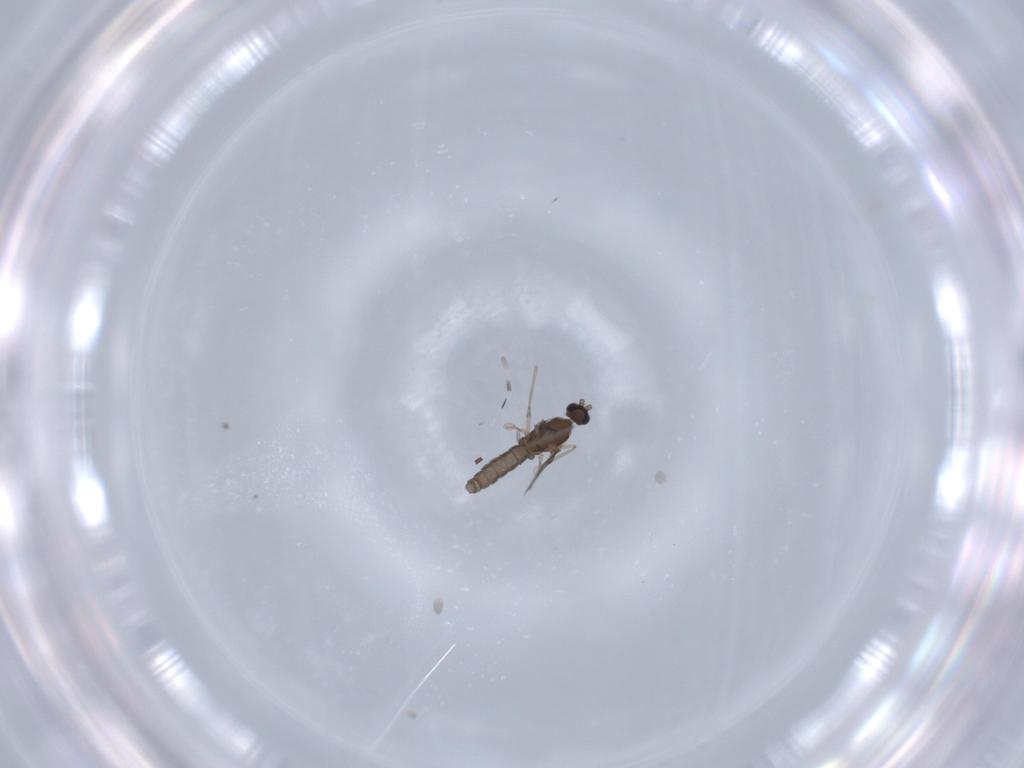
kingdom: Animalia
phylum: Arthropoda
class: Insecta
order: Diptera
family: Cecidomyiidae
